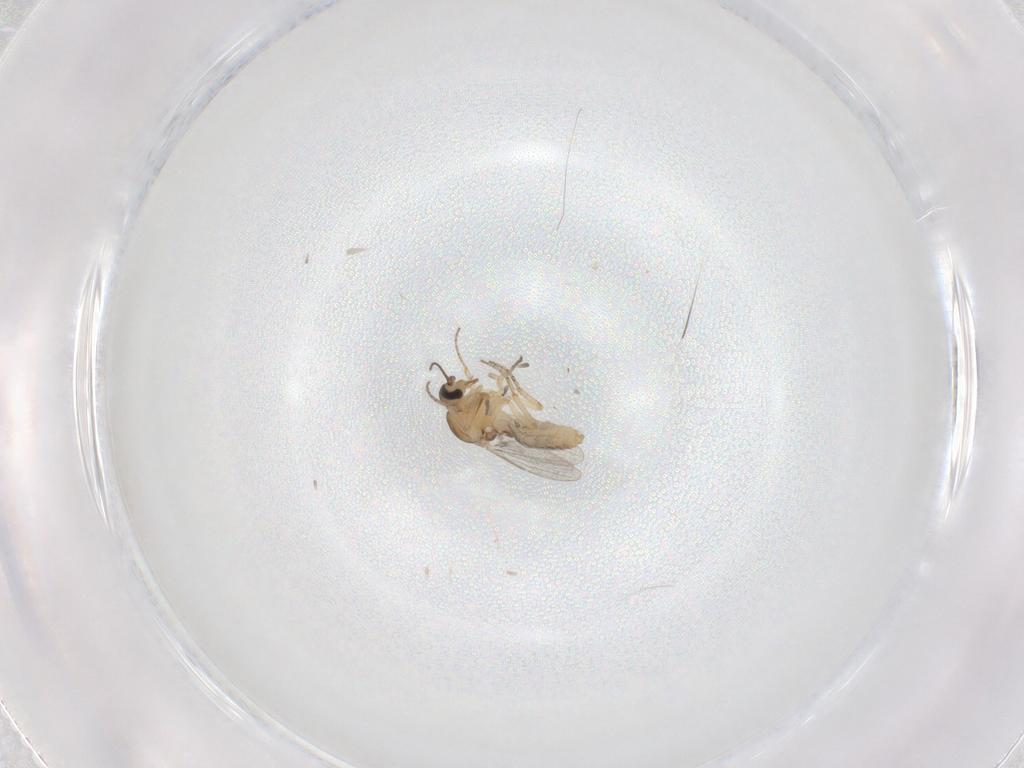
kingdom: Animalia
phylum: Arthropoda
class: Insecta
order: Diptera
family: Ceratopogonidae
